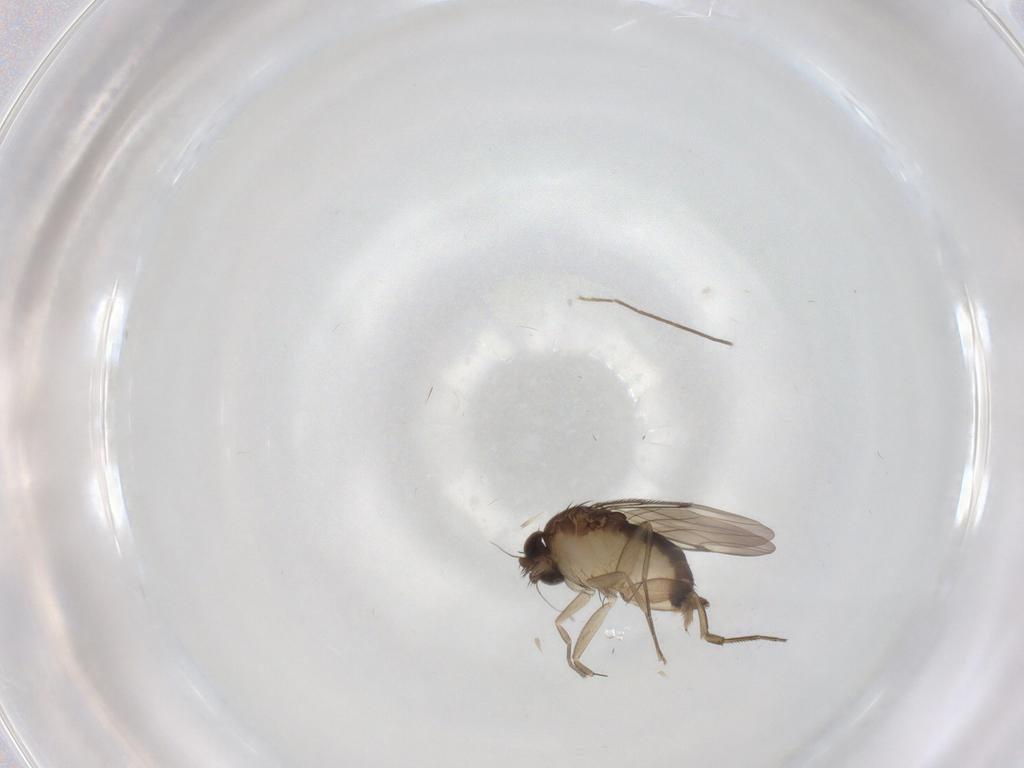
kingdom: Animalia
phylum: Arthropoda
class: Insecta
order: Diptera
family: Phoridae
